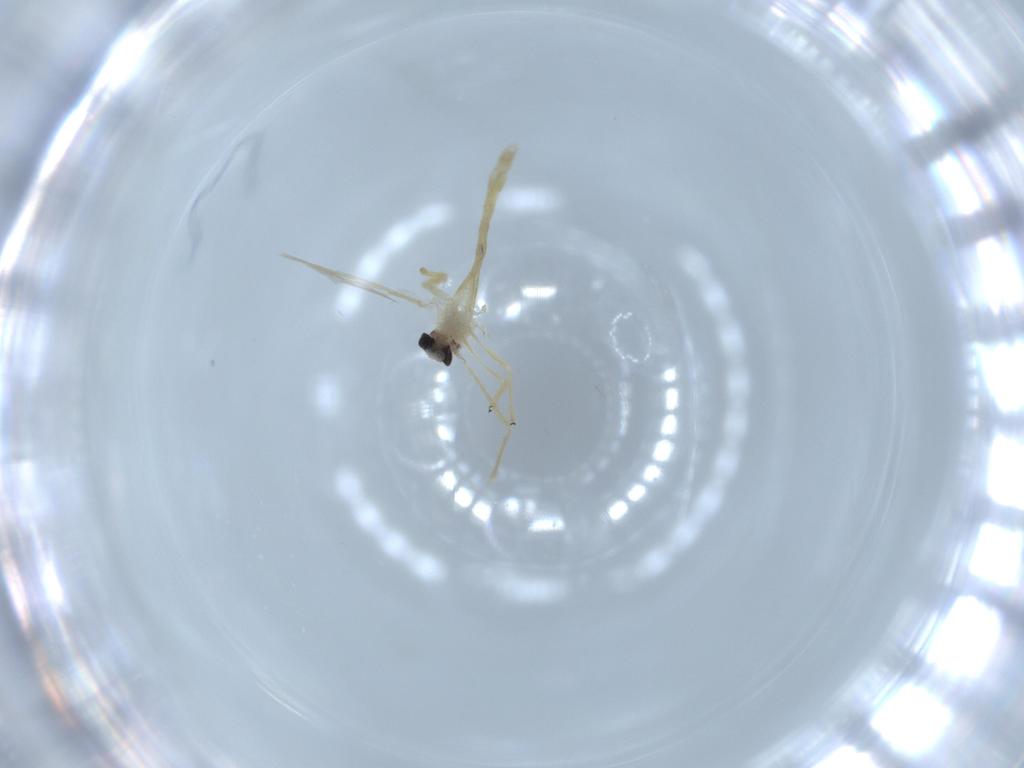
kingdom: Animalia
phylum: Arthropoda
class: Insecta
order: Diptera
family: Chironomidae
